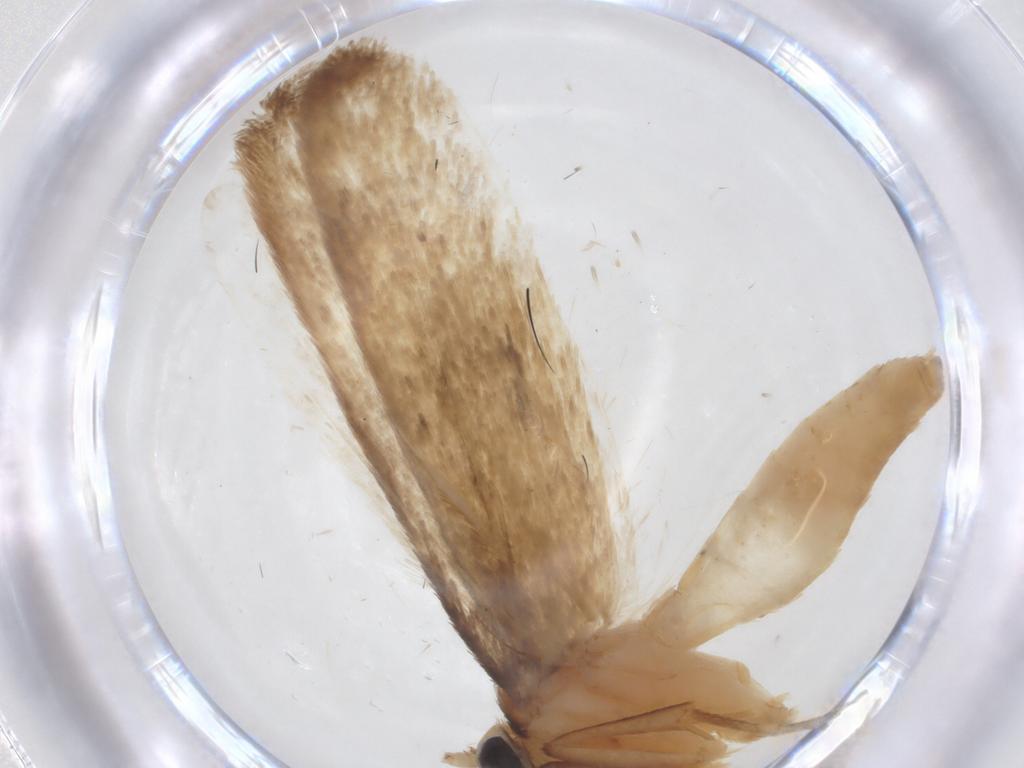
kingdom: Animalia
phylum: Arthropoda
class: Insecta
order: Lepidoptera
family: Tineidae
